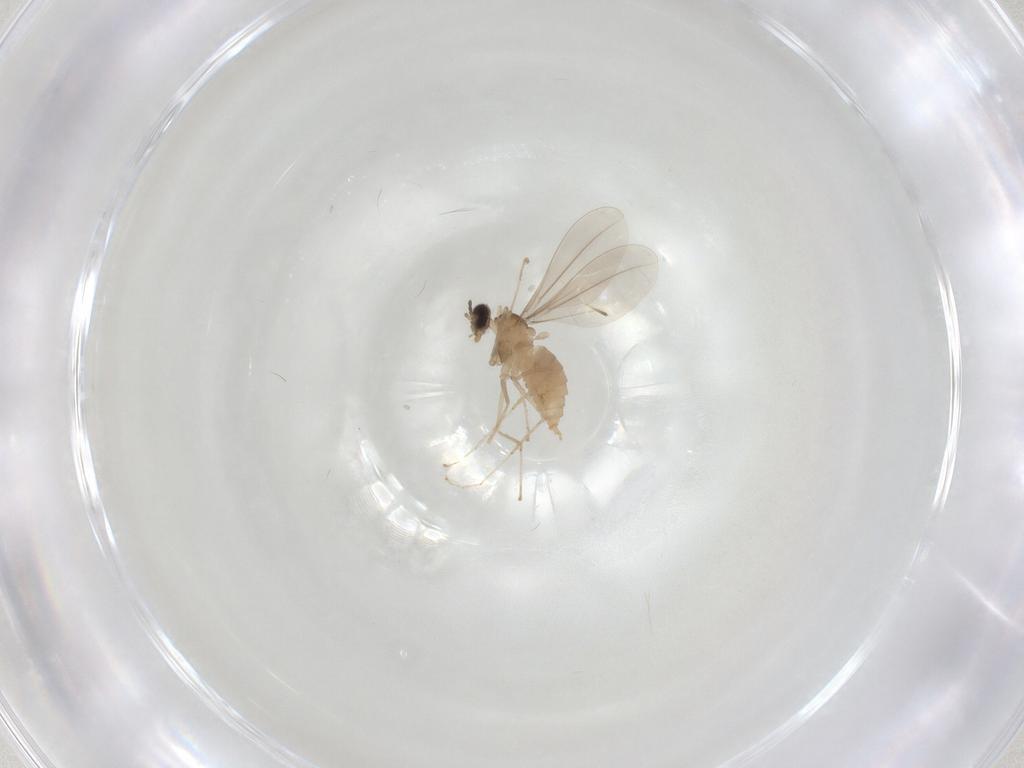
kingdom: Animalia
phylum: Arthropoda
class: Insecta
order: Diptera
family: Cecidomyiidae
